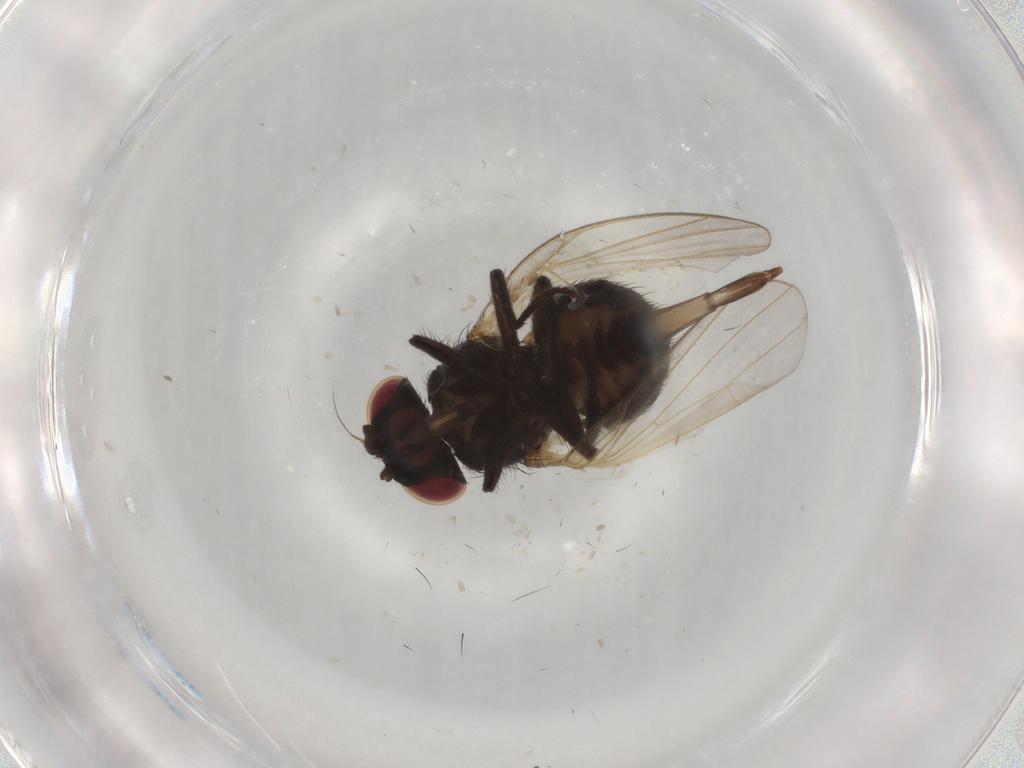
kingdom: Animalia
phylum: Arthropoda
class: Insecta
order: Diptera
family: Lonchaeidae
